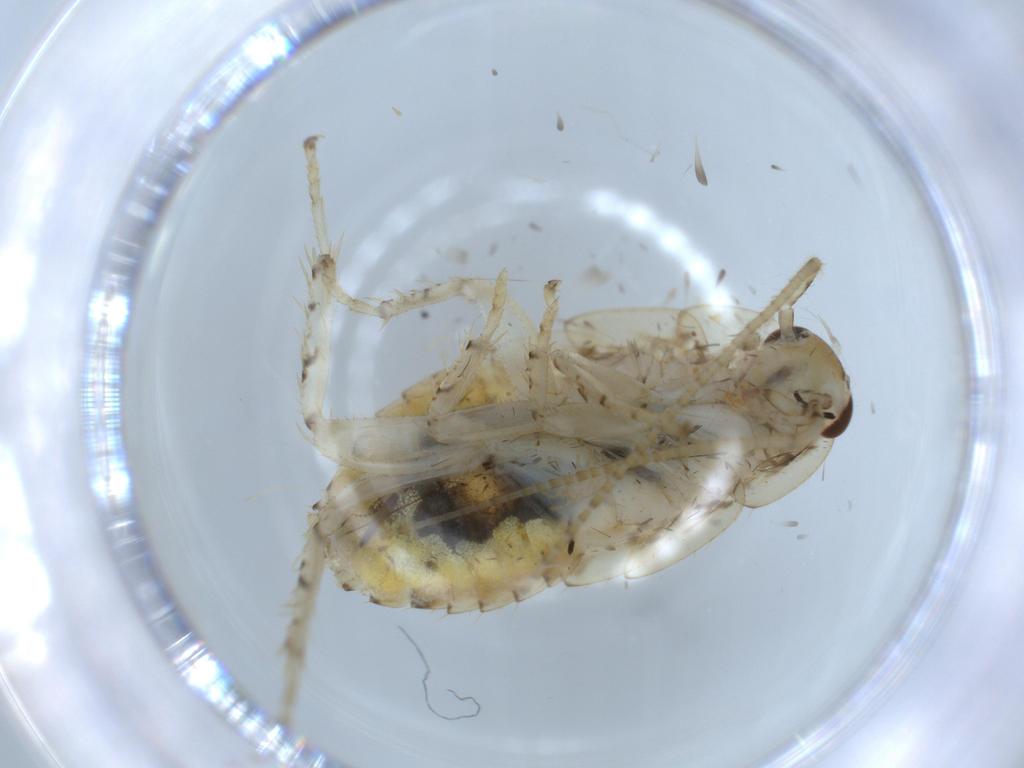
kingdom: Animalia
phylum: Arthropoda
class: Insecta
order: Blattodea
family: Ectobiidae
